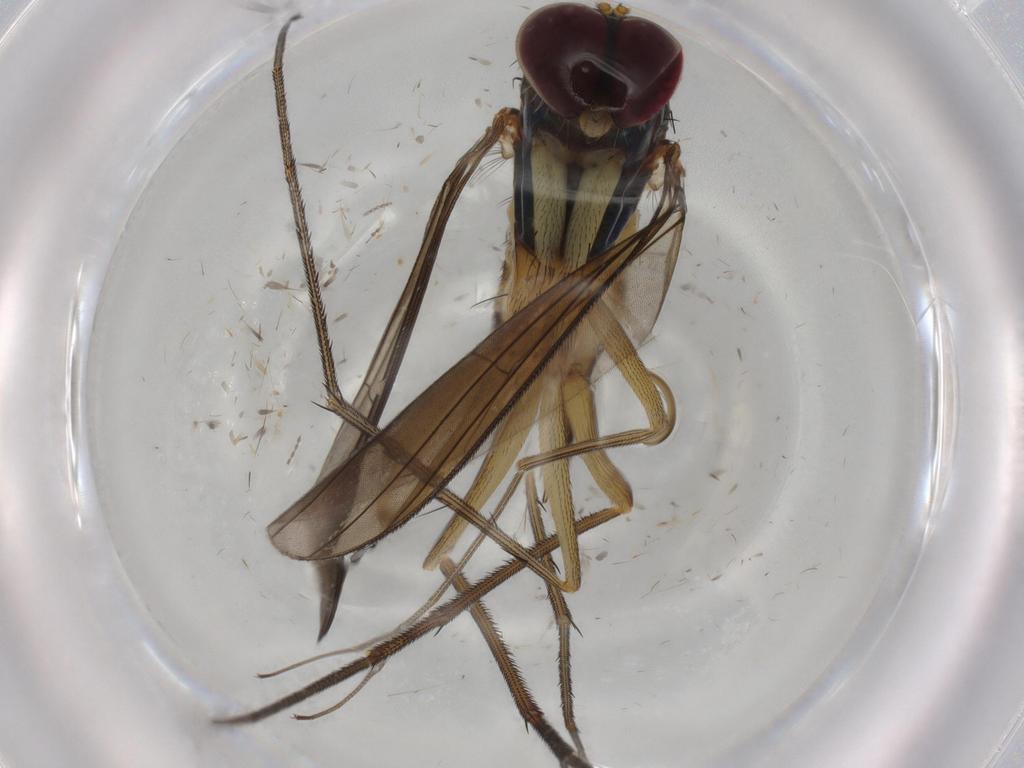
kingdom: Animalia
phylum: Arthropoda
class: Insecta
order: Diptera
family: Dolichopodidae
